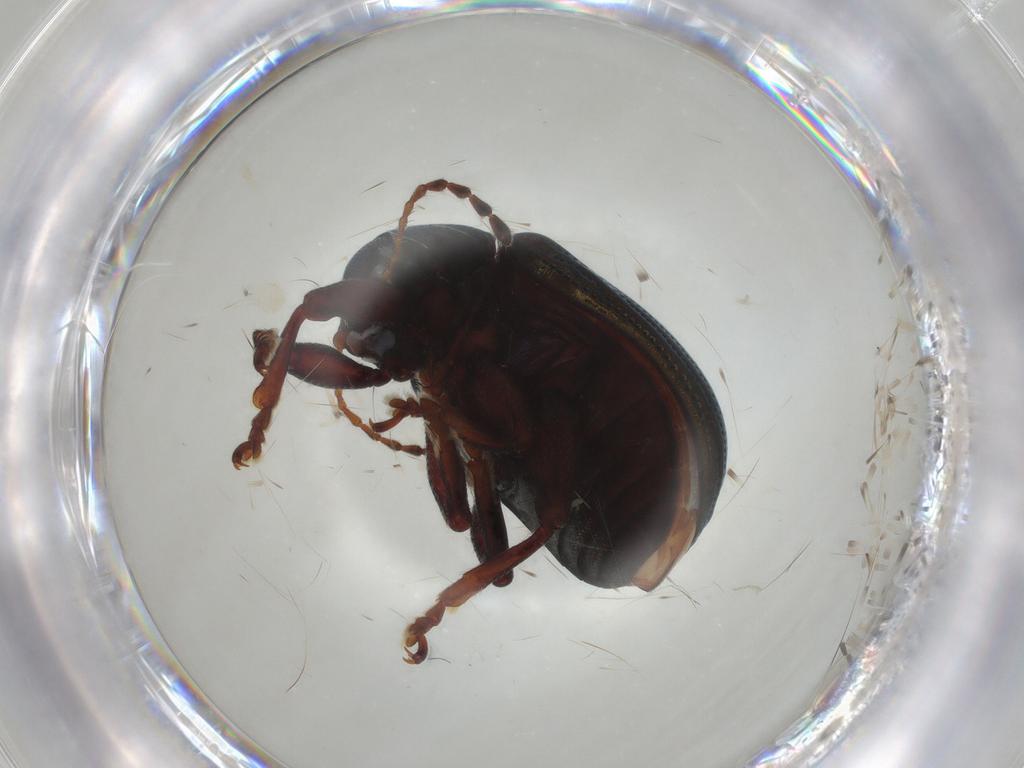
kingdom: Animalia
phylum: Arthropoda
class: Insecta
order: Coleoptera
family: Chrysomelidae
